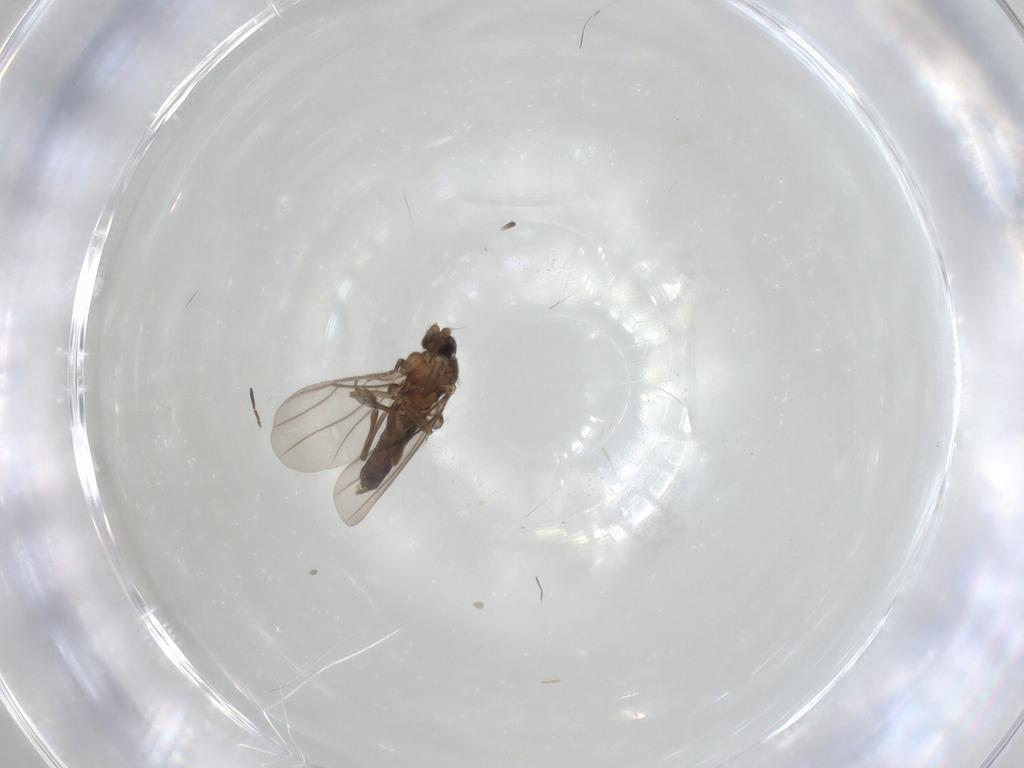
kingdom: Animalia
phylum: Arthropoda
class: Insecta
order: Diptera
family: Phoridae
